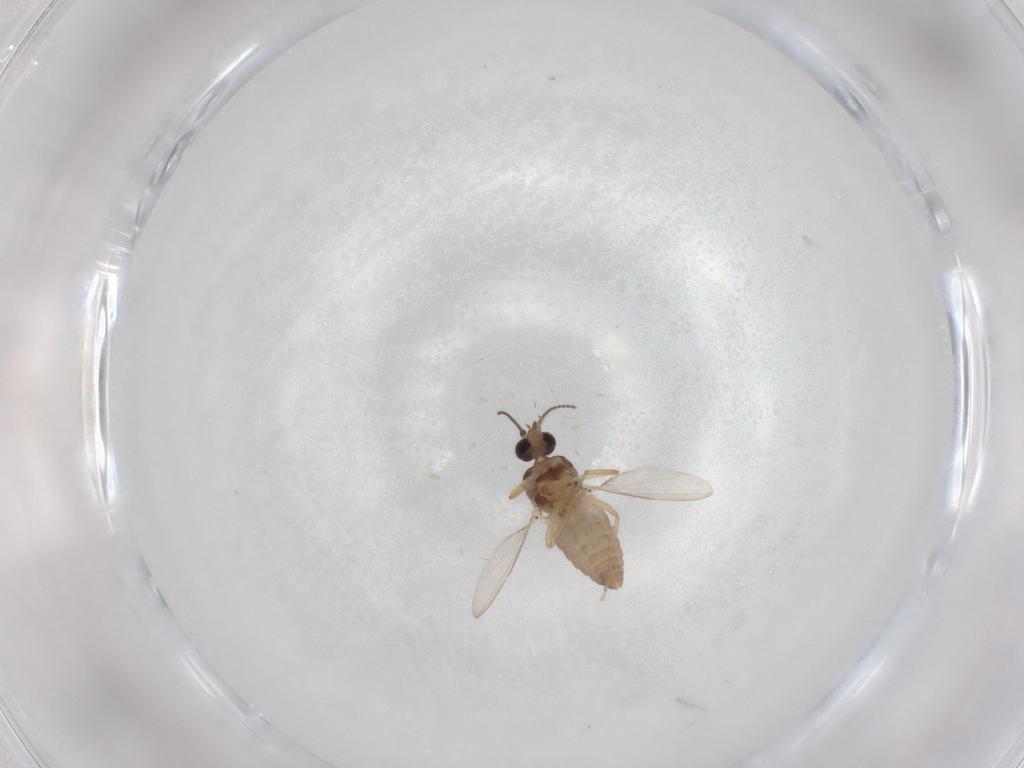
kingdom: Animalia
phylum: Arthropoda
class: Insecta
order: Diptera
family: Ceratopogonidae
